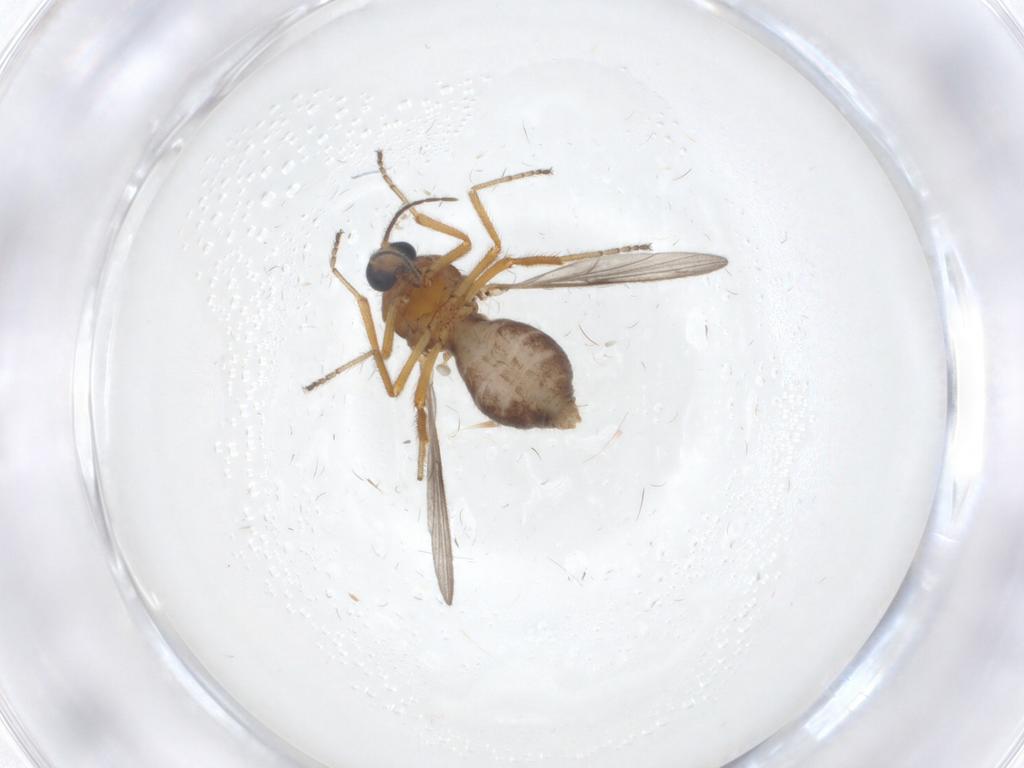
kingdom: Animalia
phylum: Arthropoda
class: Insecta
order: Diptera
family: Ceratopogonidae
